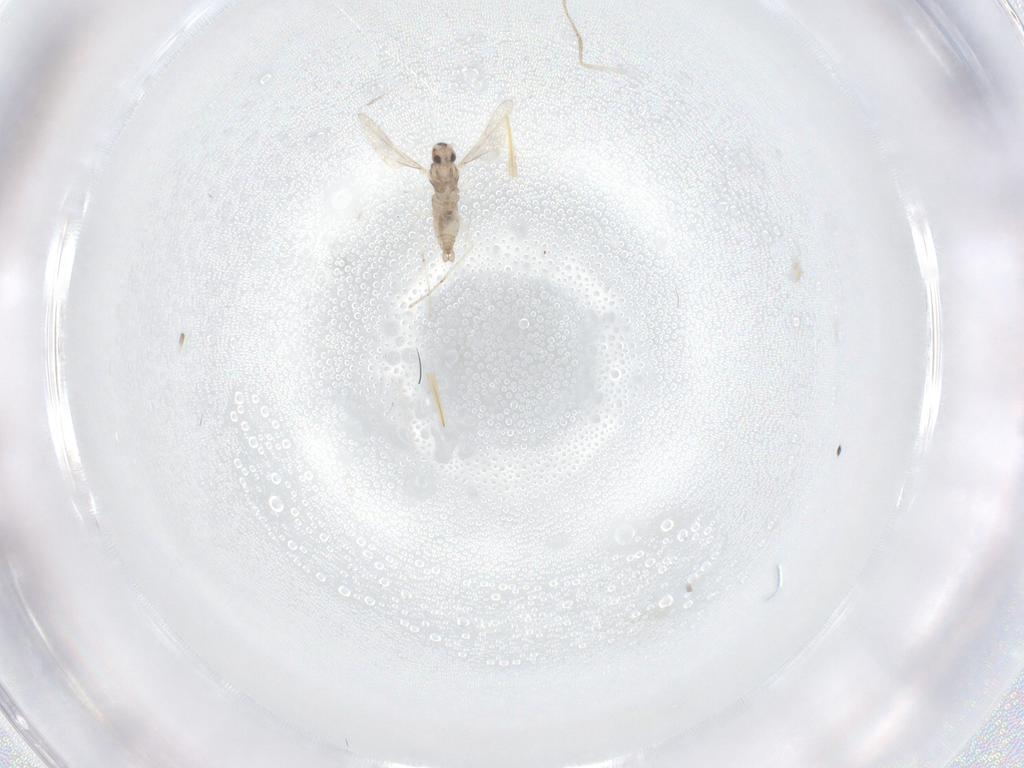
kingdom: Animalia
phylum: Arthropoda
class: Insecta
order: Diptera
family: Cecidomyiidae
